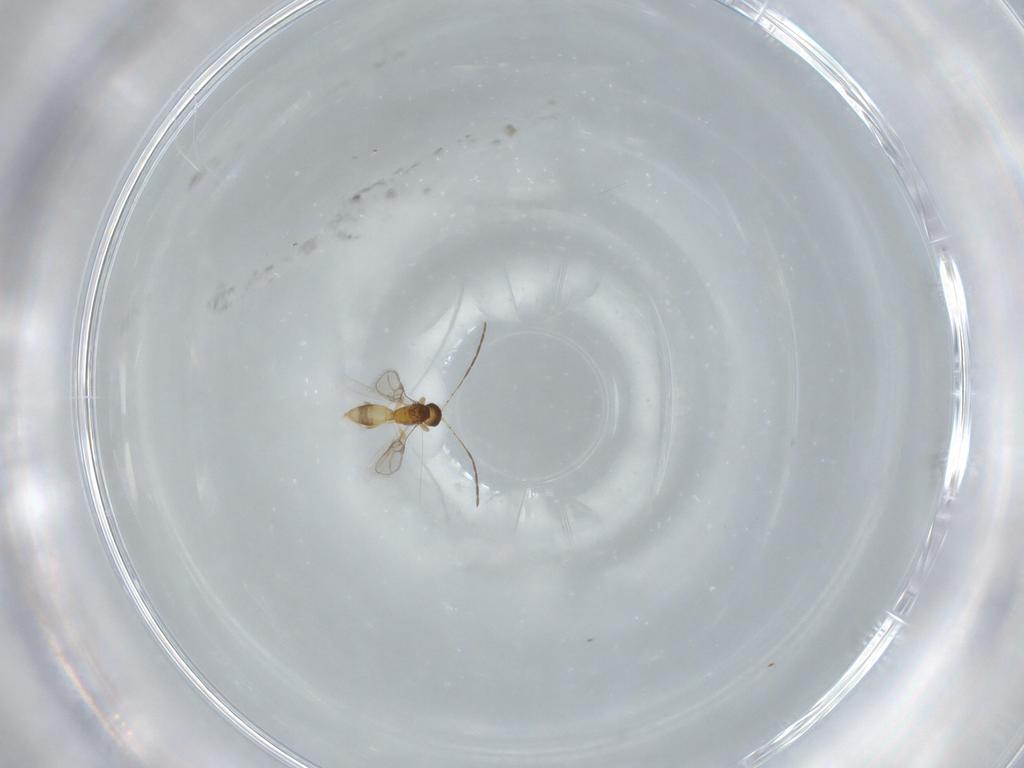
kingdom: Animalia
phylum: Arthropoda
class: Insecta
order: Hymenoptera
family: Scelionidae
